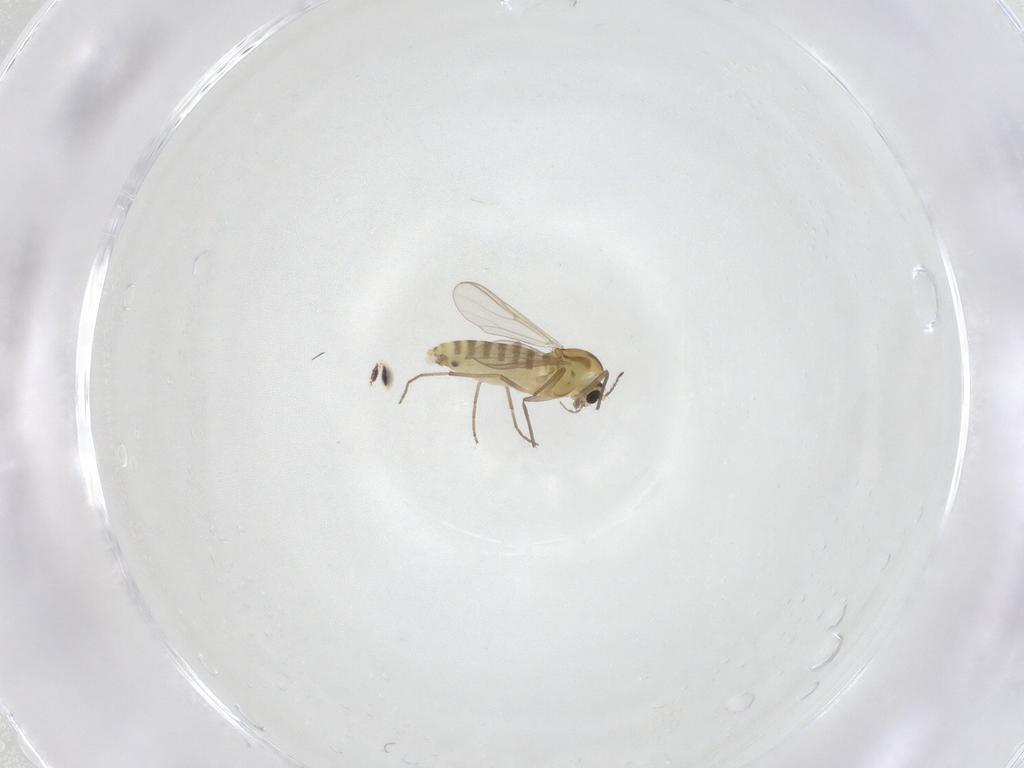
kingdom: Animalia
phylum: Arthropoda
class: Insecta
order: Diptera
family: Chironomidae
